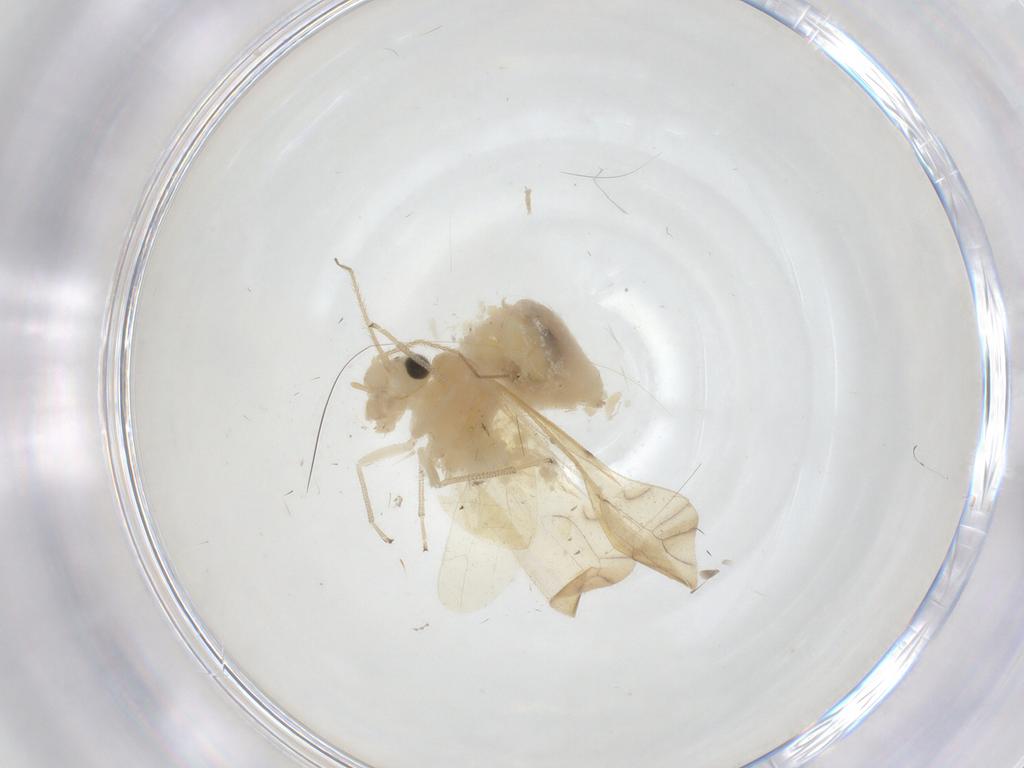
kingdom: Animalia
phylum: Arthropoda
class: Insecta
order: Psocodea
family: Caeciliusidae
